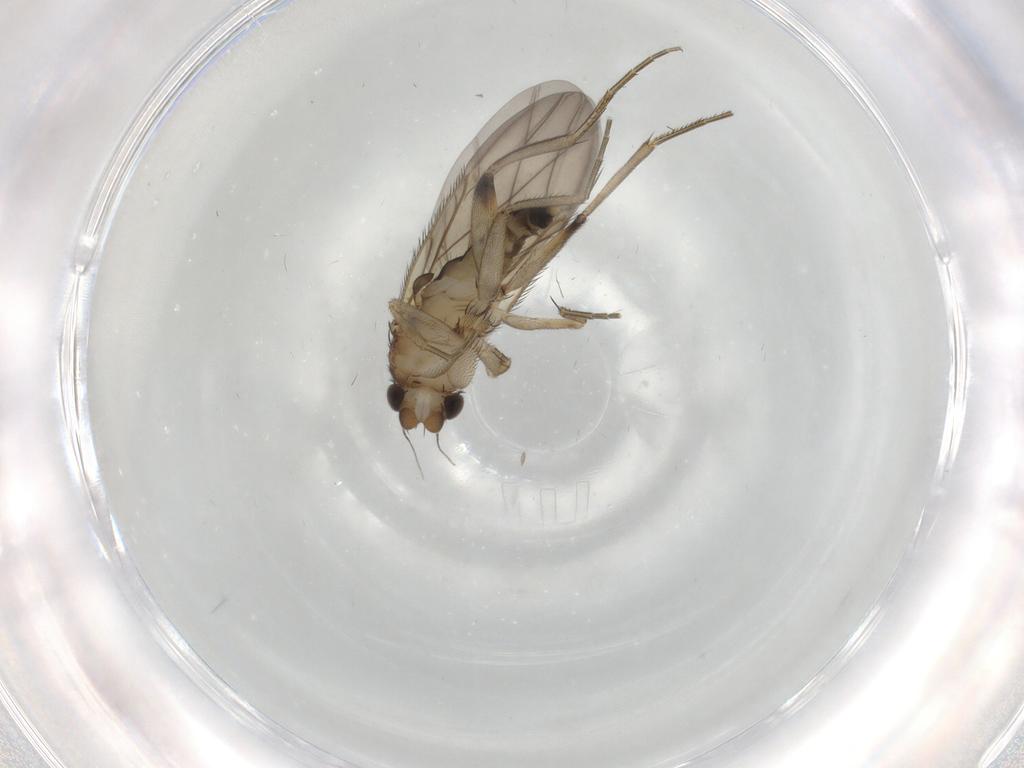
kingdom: Animalia
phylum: Arthropoda
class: Insecta
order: Diptera
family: Phoridae
